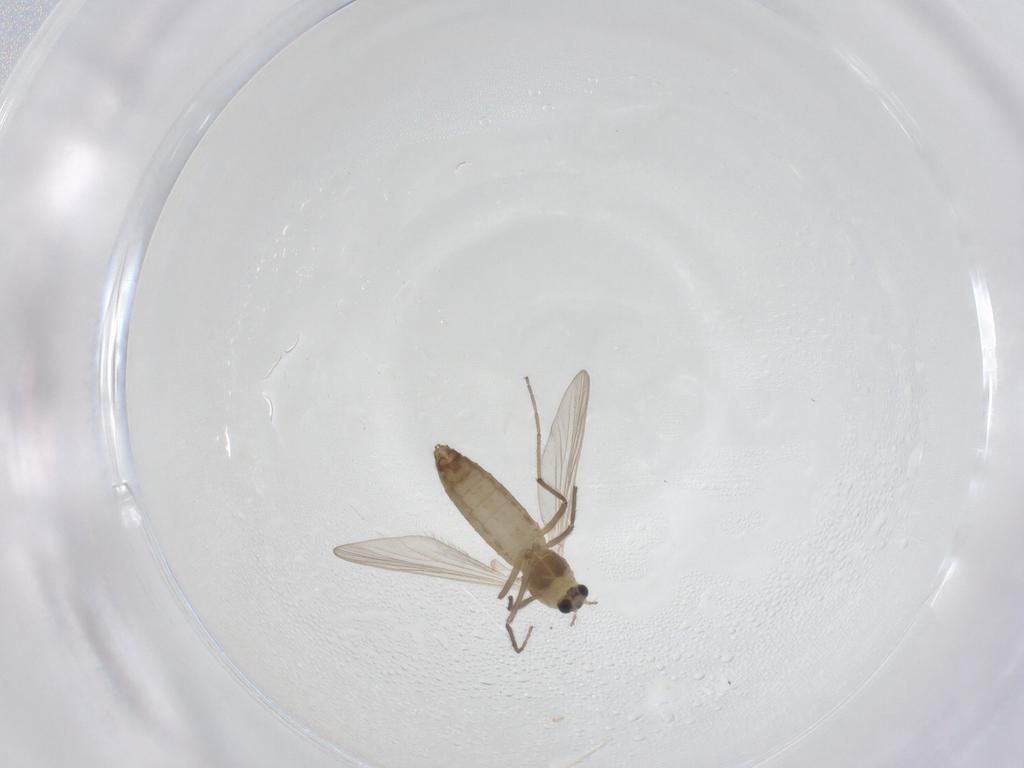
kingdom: Animalia
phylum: Arthropoda
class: Insecta
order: Diptera
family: Chironomidae
